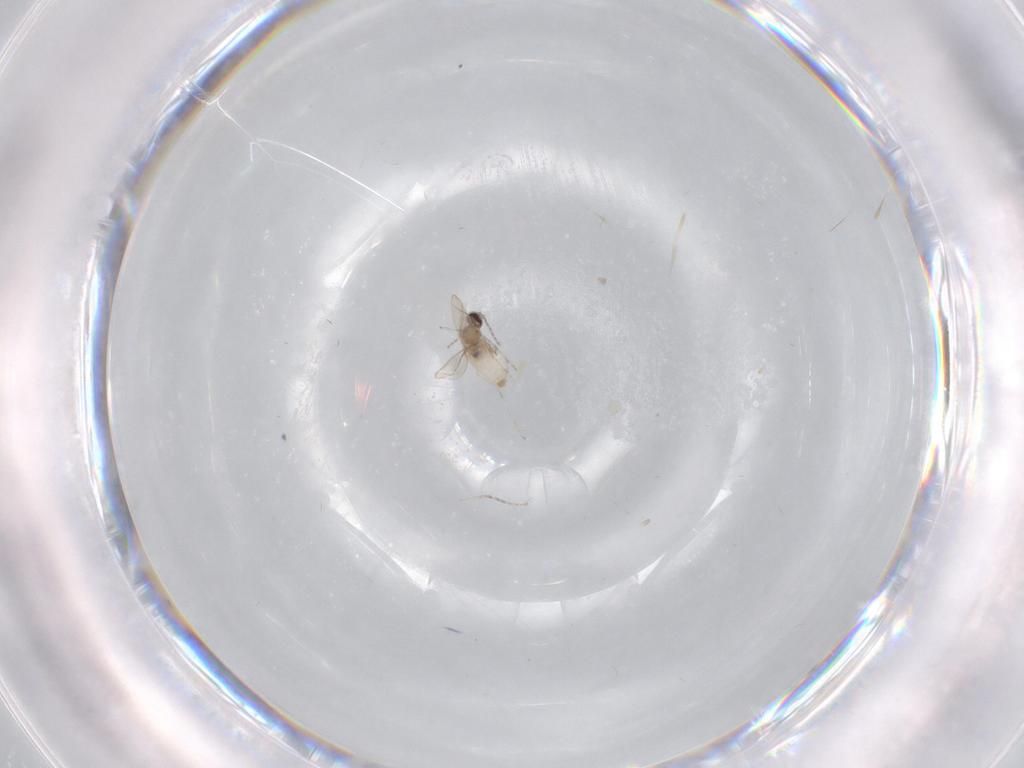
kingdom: Animalia
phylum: Arthropoda
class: Insecta
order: Diptera
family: Cecidomyiidae
